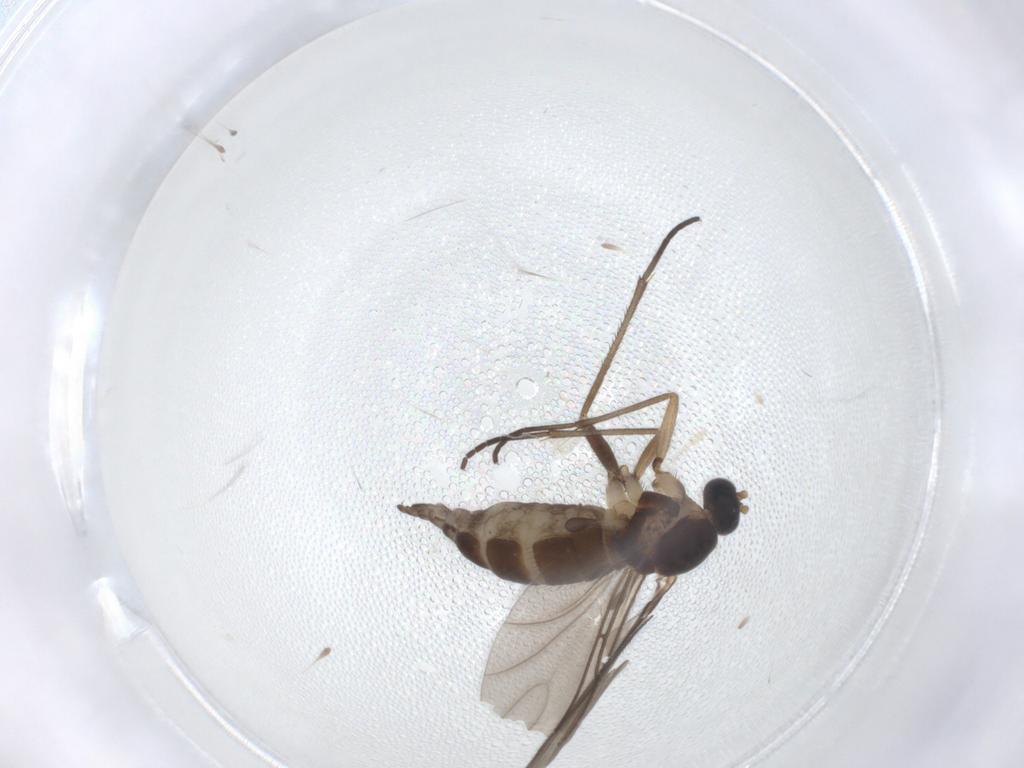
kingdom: Animalia
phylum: Arthropoda
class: Insecta
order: Diptera
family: Sciaridae
